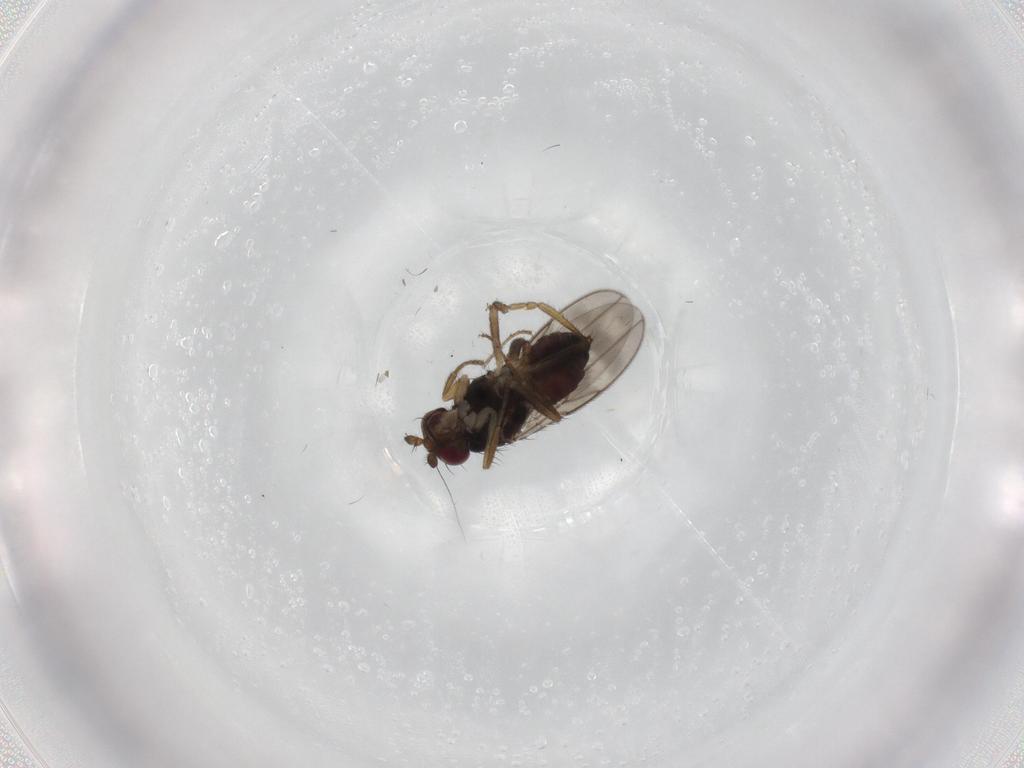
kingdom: Animalia
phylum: Arthropoda
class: Insecta
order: Diptera
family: Sphaeroceridae
